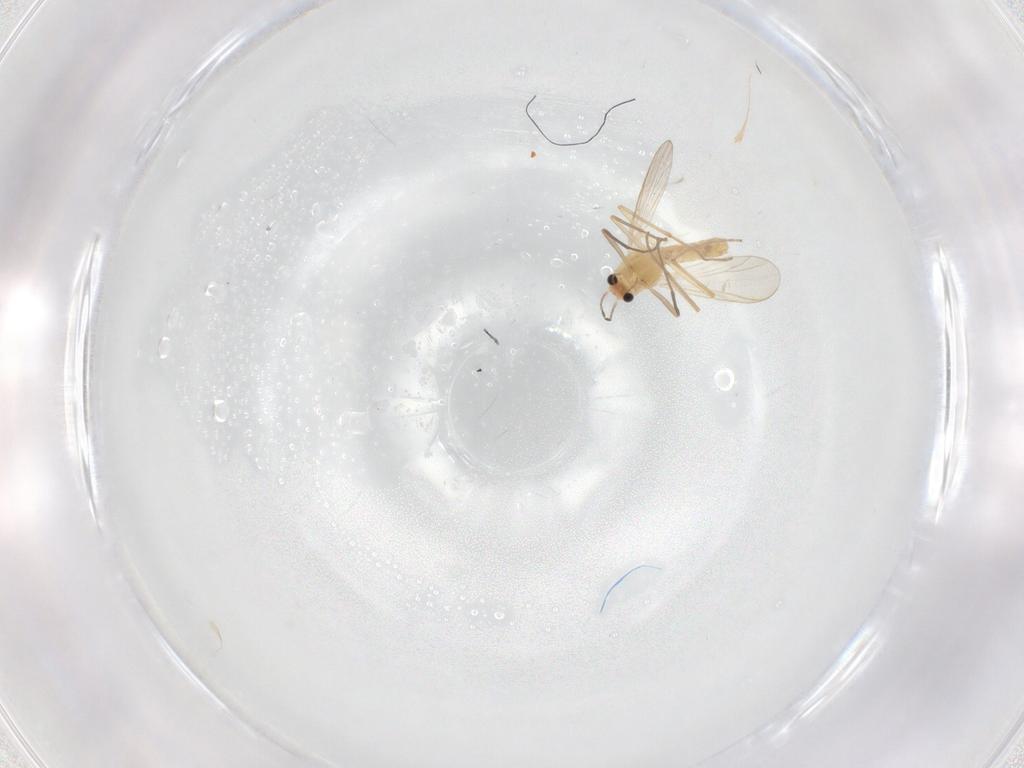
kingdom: Animalia
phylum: Arthropoda
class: Insecta
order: Diptera
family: Chironomidae
